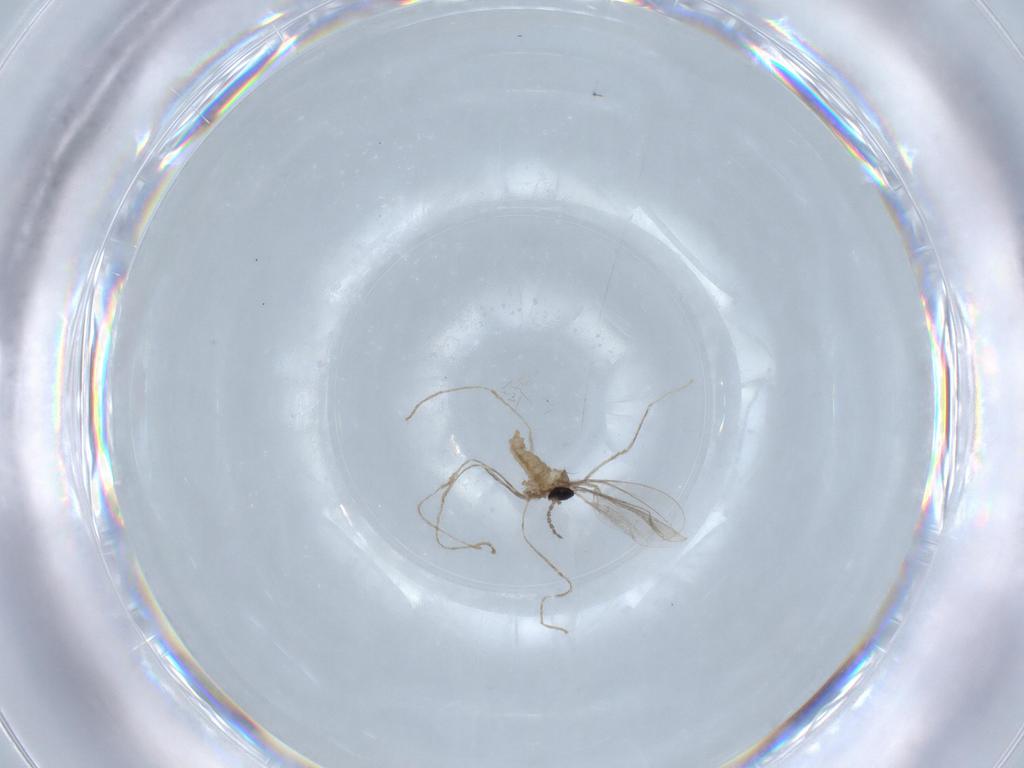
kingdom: Animalia
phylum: Arthropoda
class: Insecta
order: Diptera
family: Cecidomyiidae
